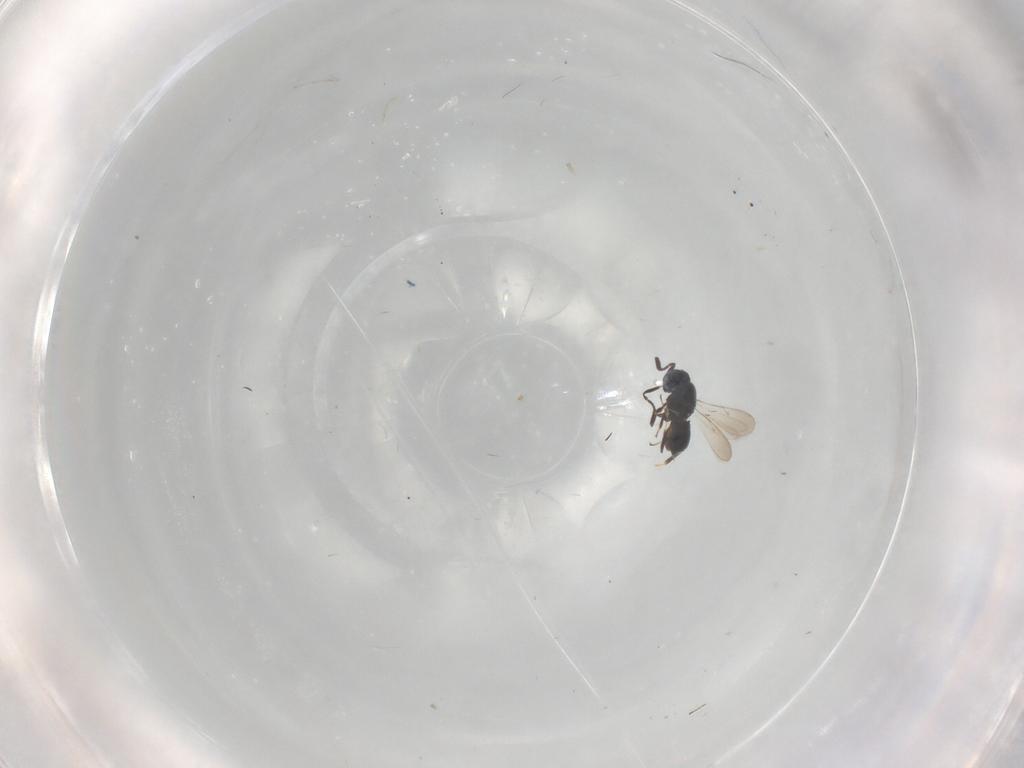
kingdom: Animalia
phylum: Arthropoda
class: Insecta
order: Hymenoptera
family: Scelionidae
